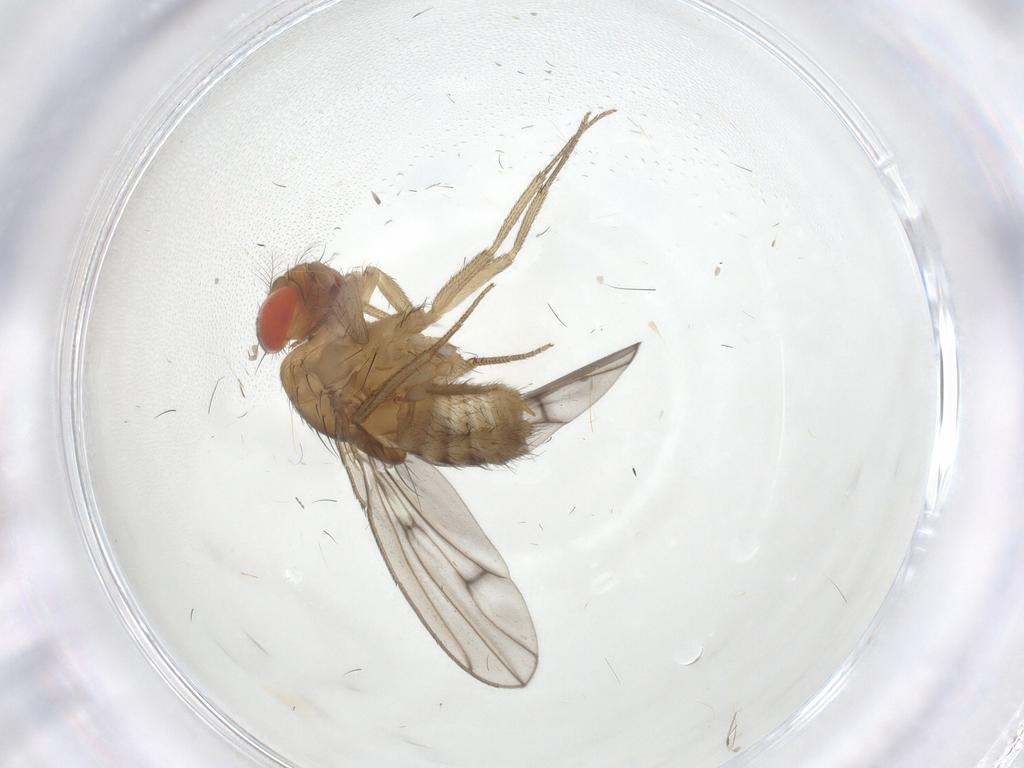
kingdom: Animalia
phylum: Arthropoda
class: Insecta
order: Diptera
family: Drosophilidae
